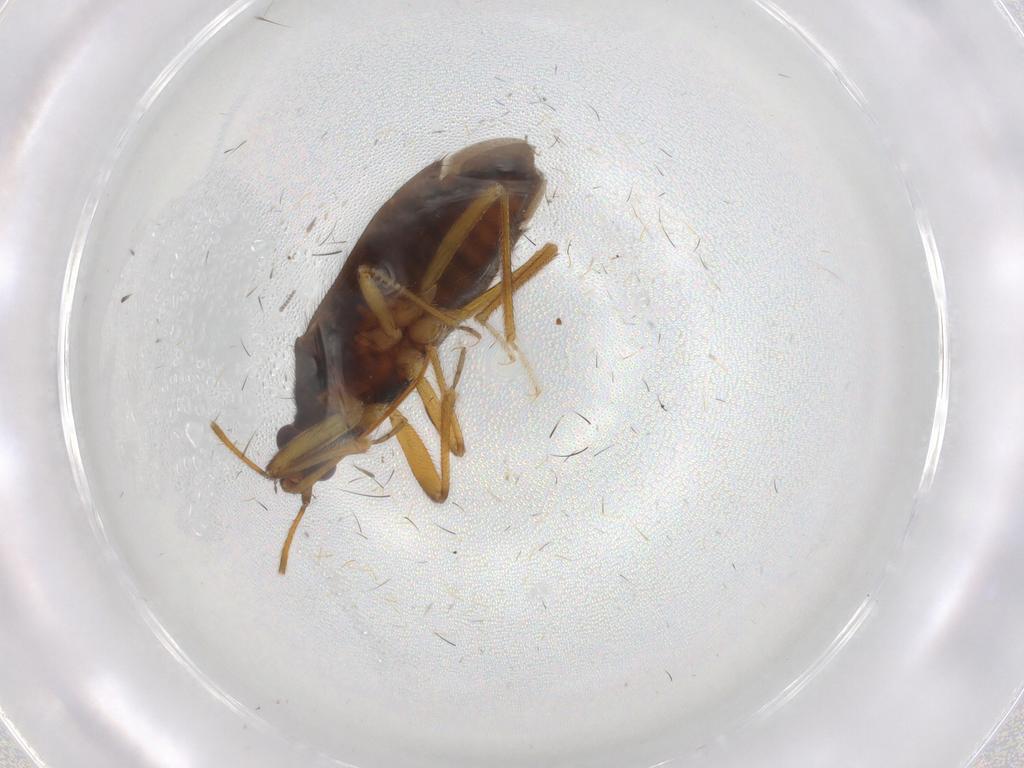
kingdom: Animalia
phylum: Arthropoda
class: Insecta
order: Hemiptera
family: Anthocoridae
